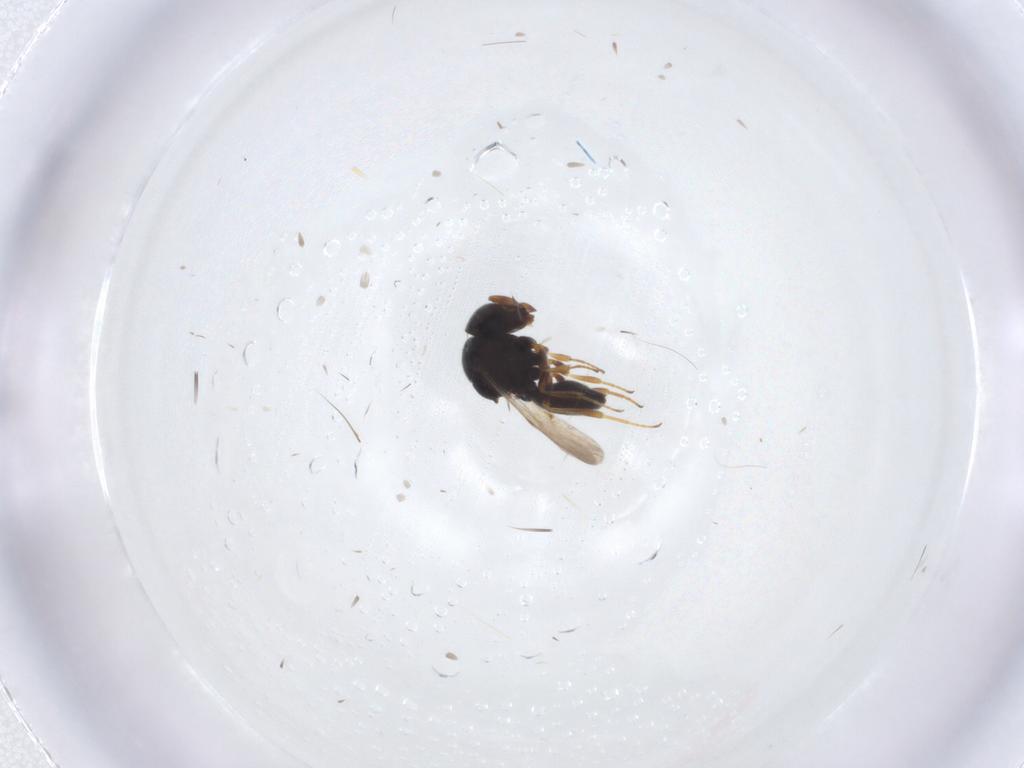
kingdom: Animalia
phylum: Arthropoda
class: Insecta
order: Hymenoptera
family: Scelionidae
